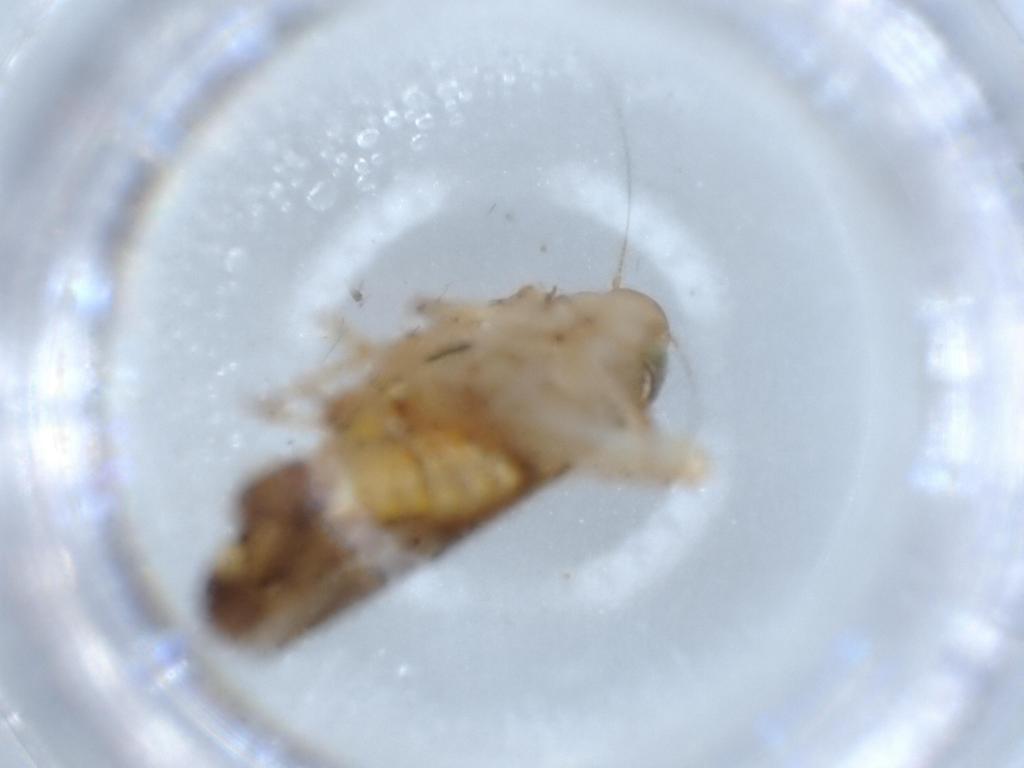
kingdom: Animalia
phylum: Arthropoda
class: Insecta
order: Hemiptera
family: Cicadellidae
